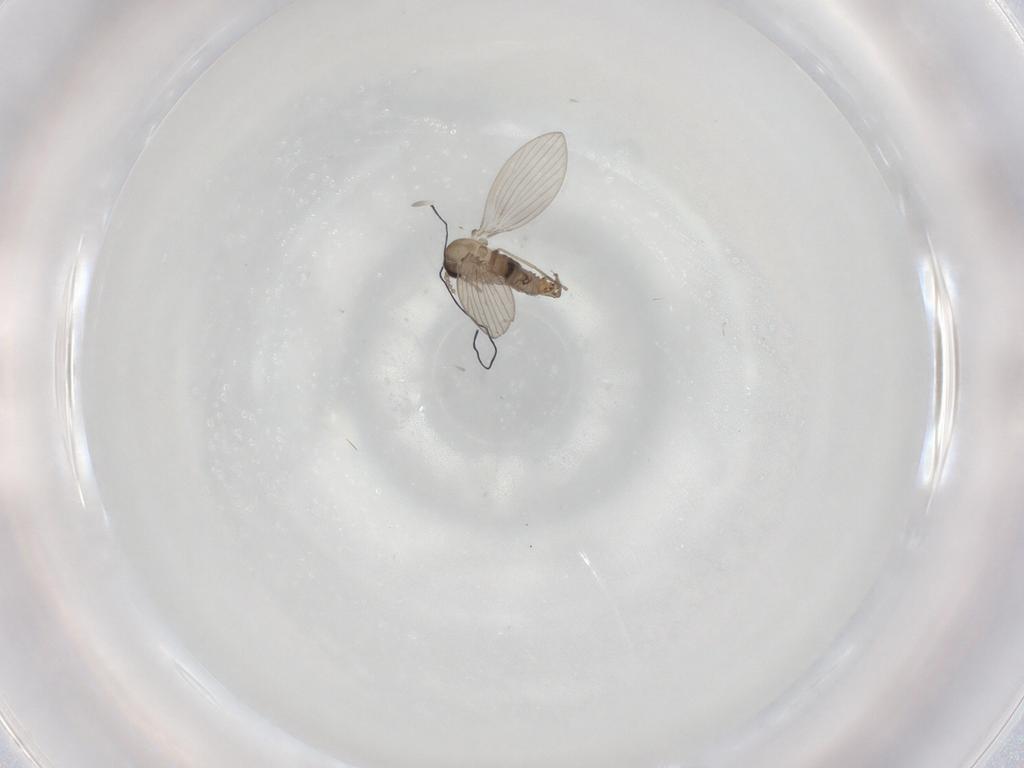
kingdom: Animalia
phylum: Arthropoda
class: Insecta
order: Diptera
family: Psychodidae
